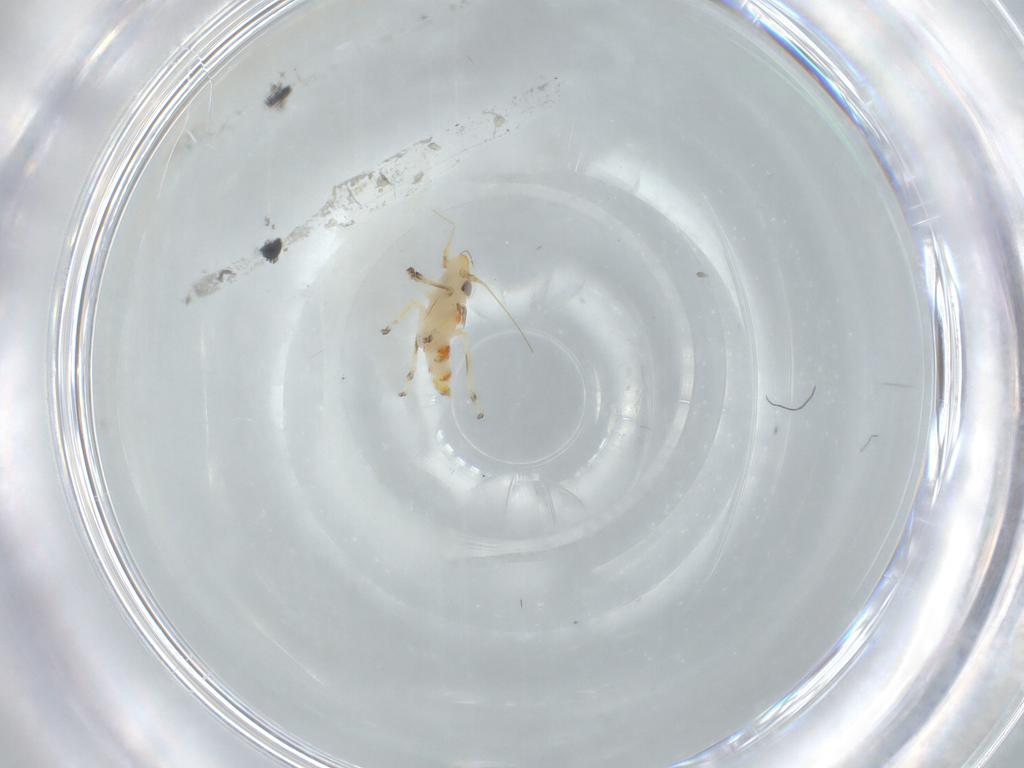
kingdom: Animalia
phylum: Arthropoda
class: Insecta
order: Hemiptera
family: Cicadellidae
